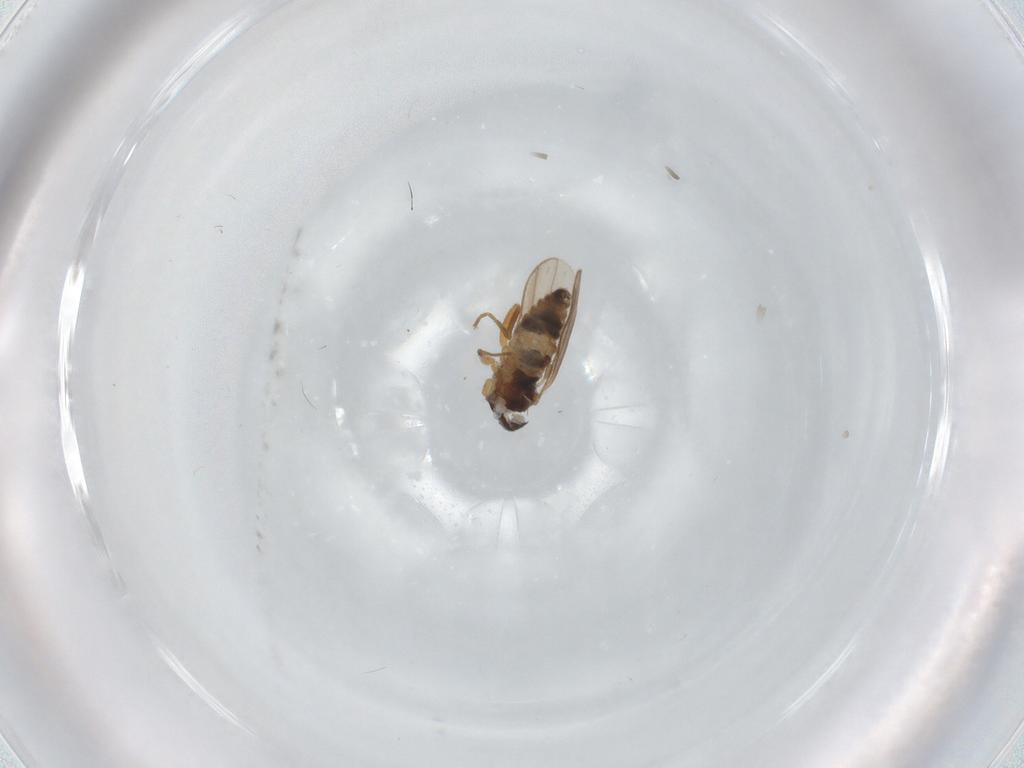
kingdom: Animalia
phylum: Arthropoda
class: Insecta
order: Diptera
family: Hybotidae
